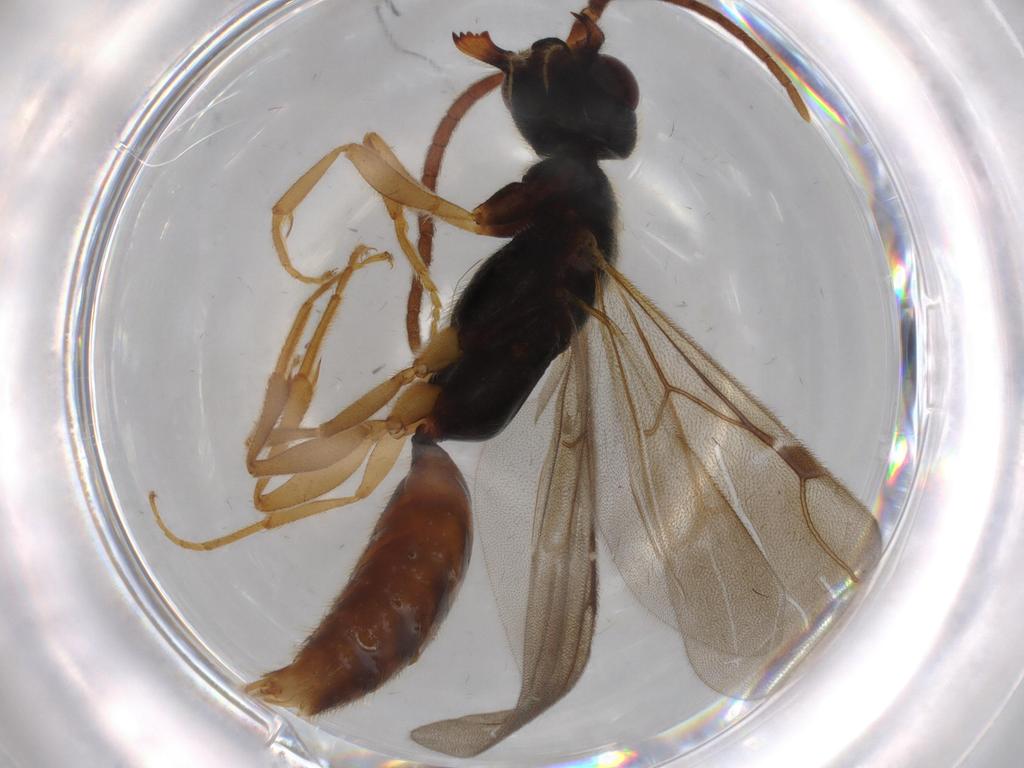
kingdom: Animalia
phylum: Arthropoda
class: Insecta
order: Hymenoptera
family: Bethylidae
